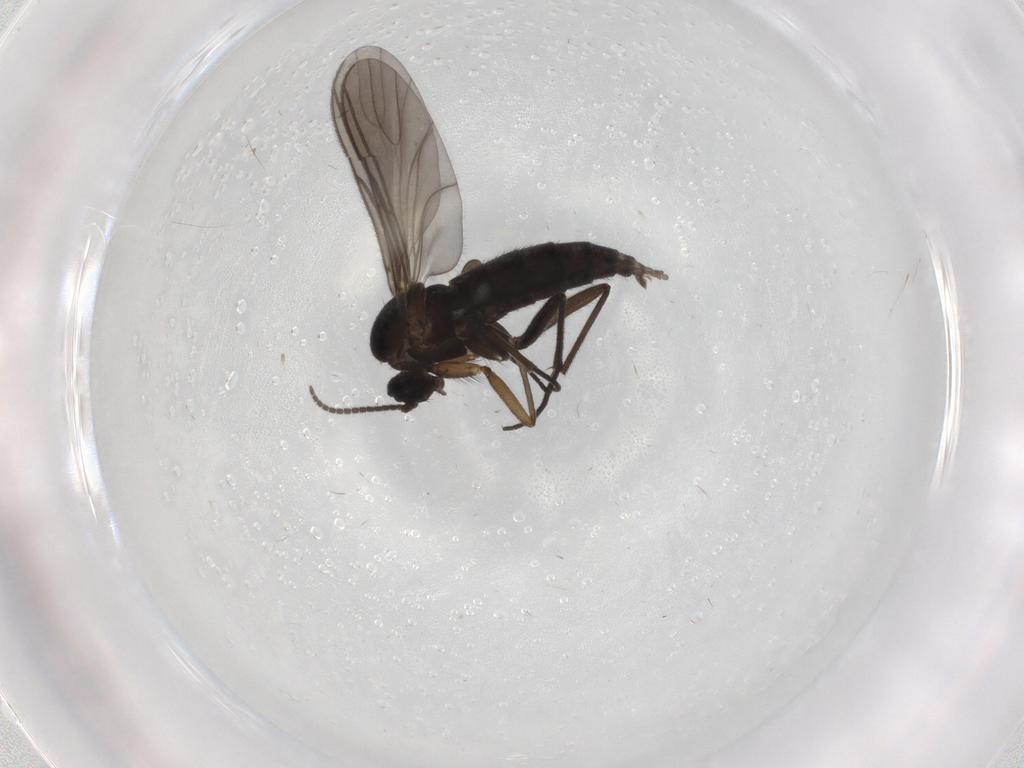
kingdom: Animalia
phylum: Arthropoda
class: Insecta
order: Diptera
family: Sciaridae
